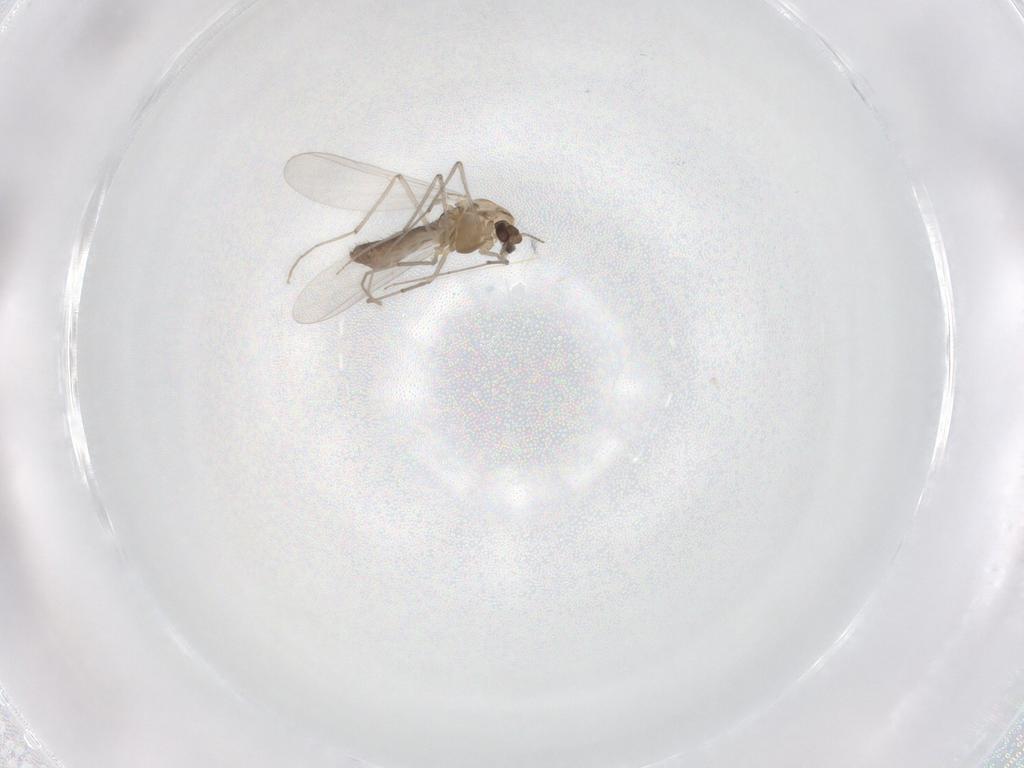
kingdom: Animalia
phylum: Arthropoda
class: Insecta
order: Diptera
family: Chironomidae
